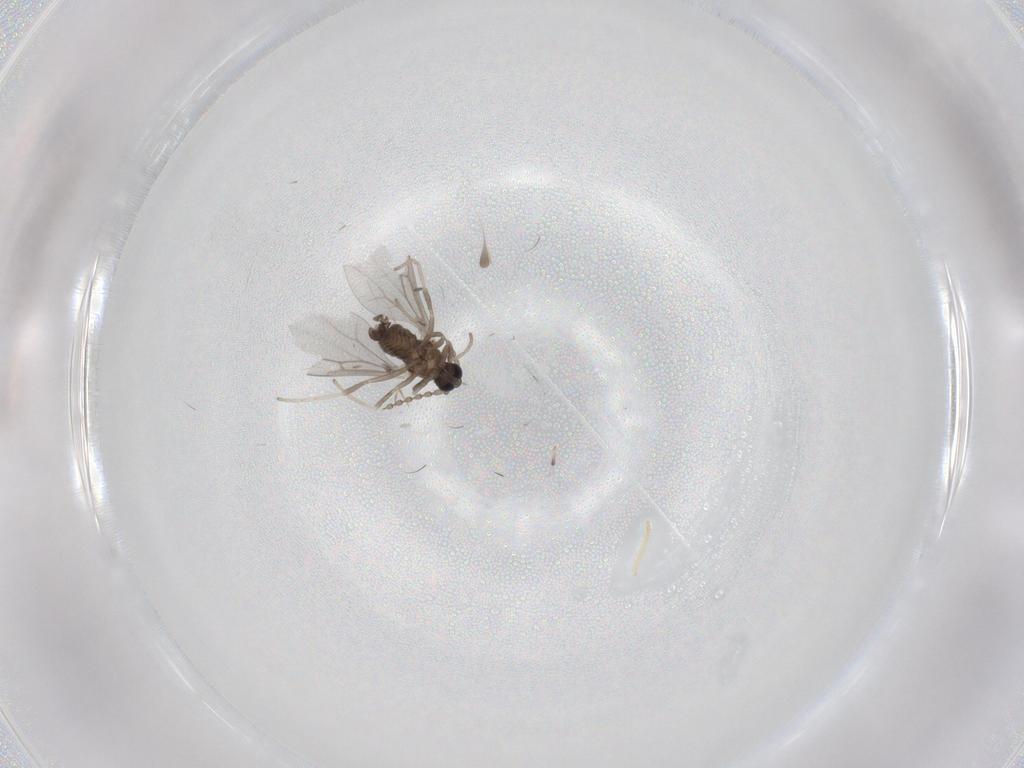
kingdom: Animalia
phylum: Arthropoda
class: Insecta
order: Diptera
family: Cecidomyiidae
